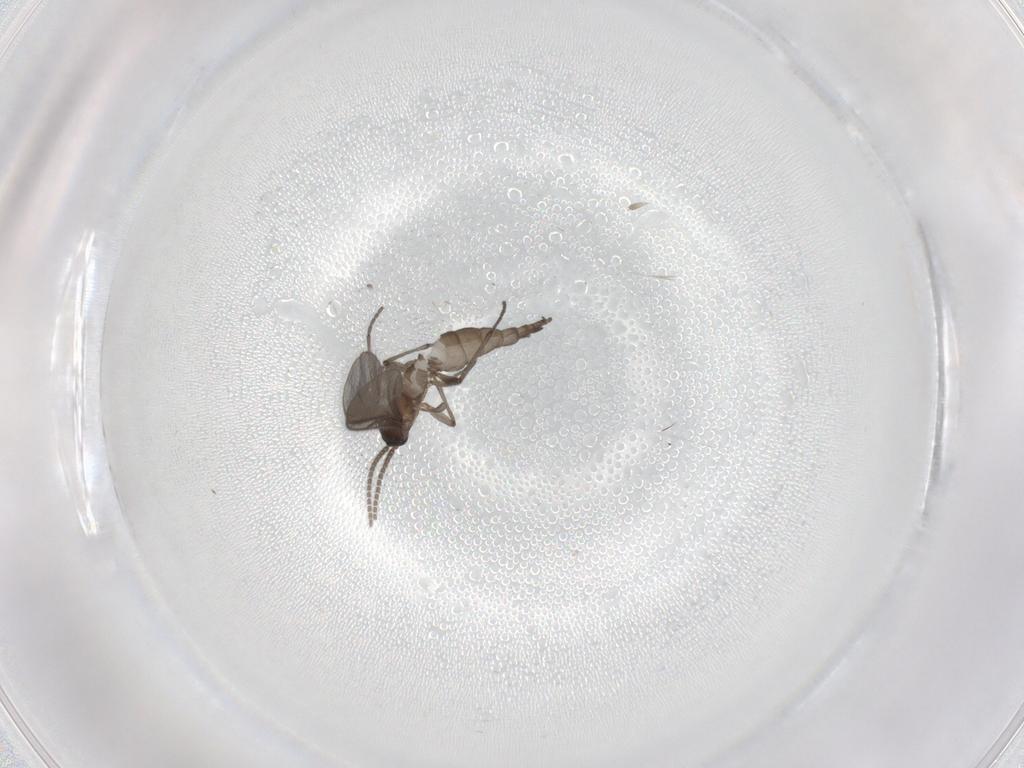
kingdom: Animalia
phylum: Arthropoda
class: Insecta
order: Diptera
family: Sciaridae
